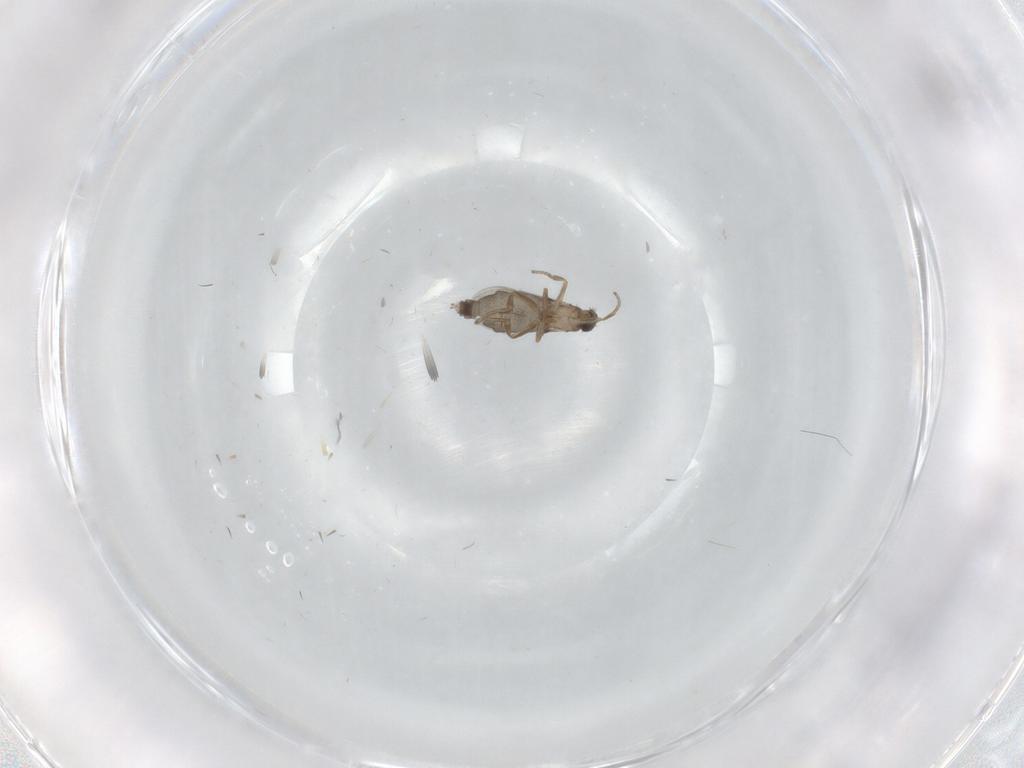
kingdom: Animalia
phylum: Arthropoda
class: Insecta
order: Diptera
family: Phoridae
